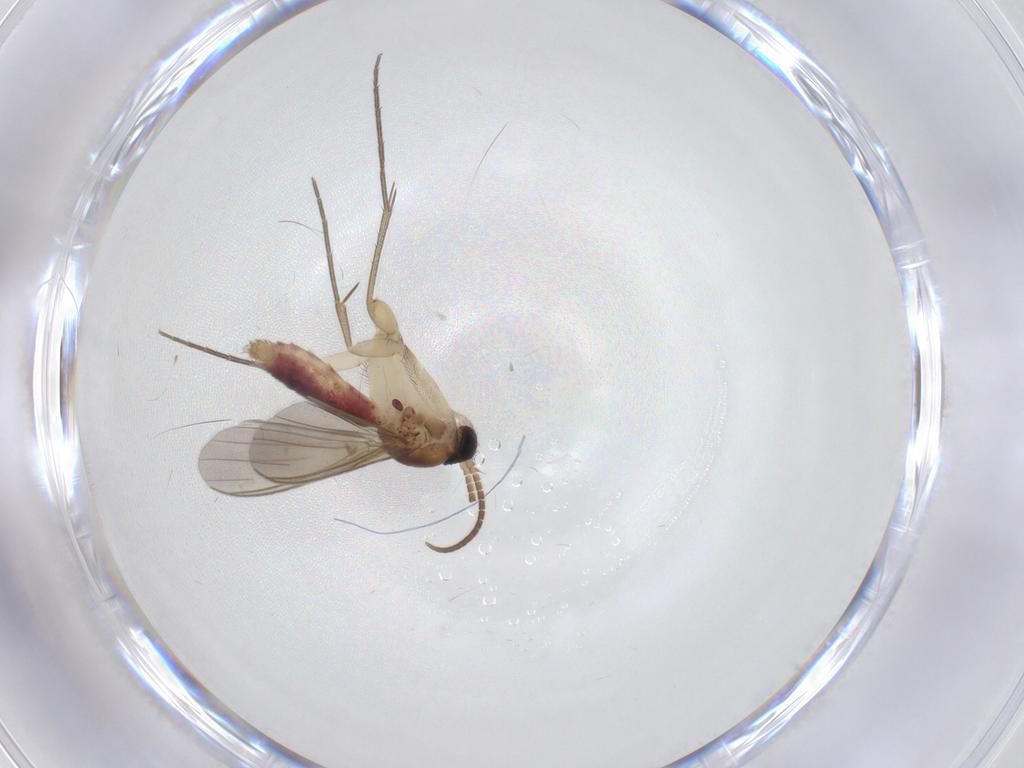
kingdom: Animalia
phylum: Arthropoda
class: Insecta
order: Diptera
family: Mycetophilidae
